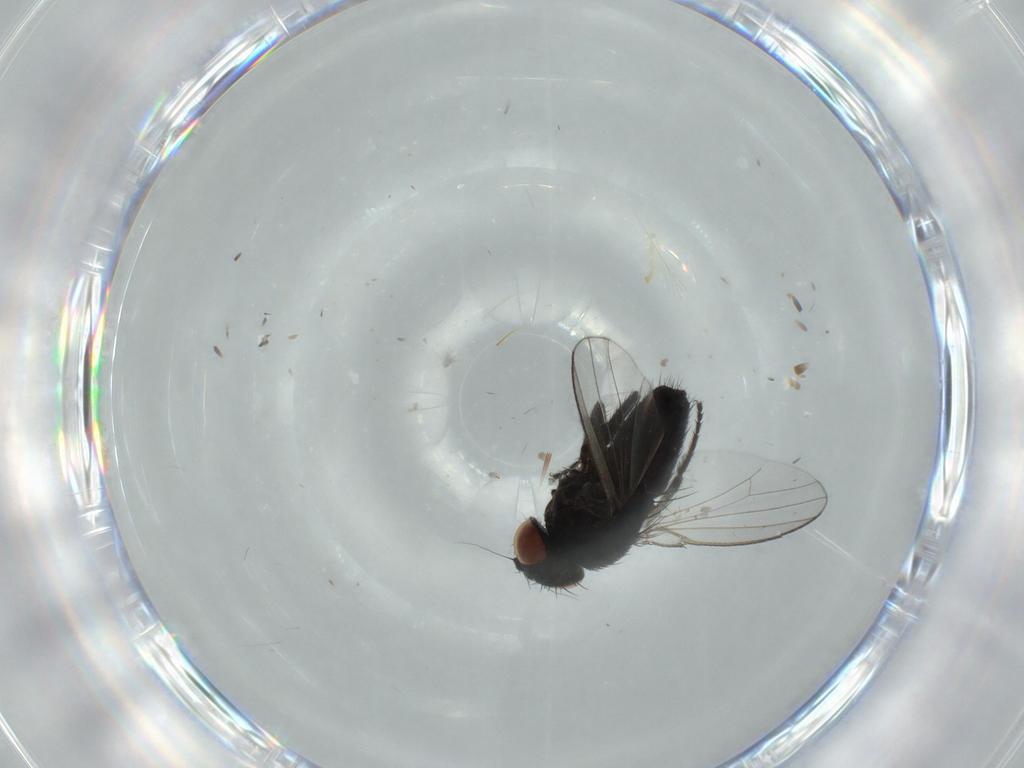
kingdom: Animalia
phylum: Arthropoda
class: Insecta
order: Diptera
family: Milichiidae
